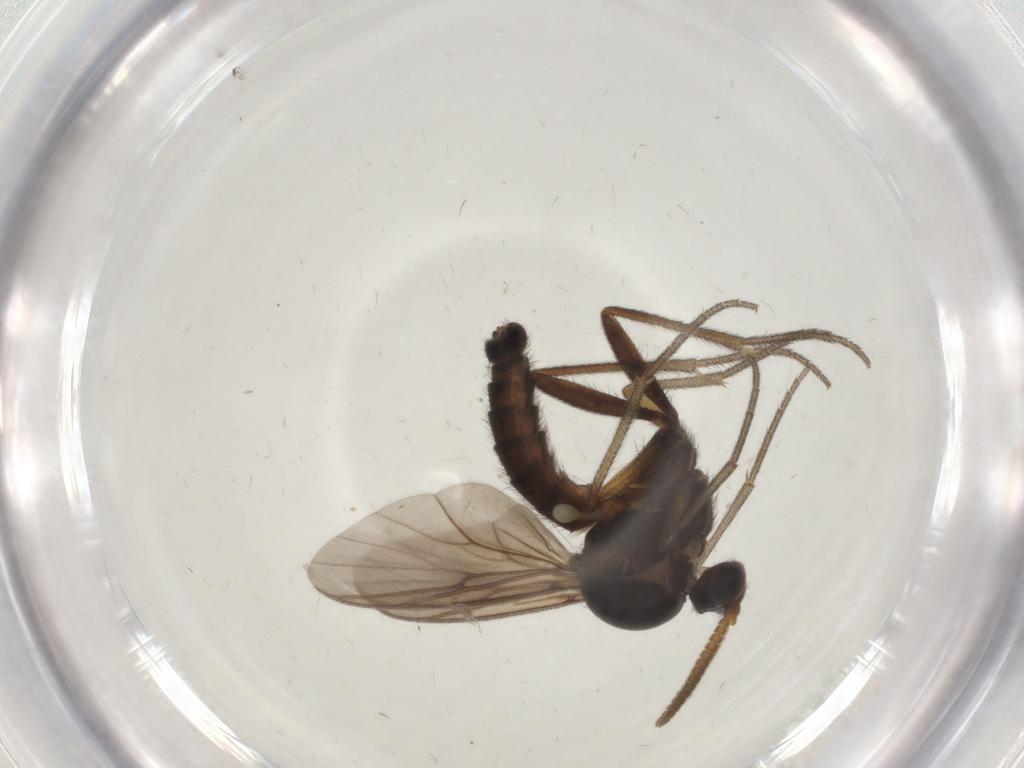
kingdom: Animalia
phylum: Arthropoda
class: Insecta
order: Diptera
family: Mycetophilidae
